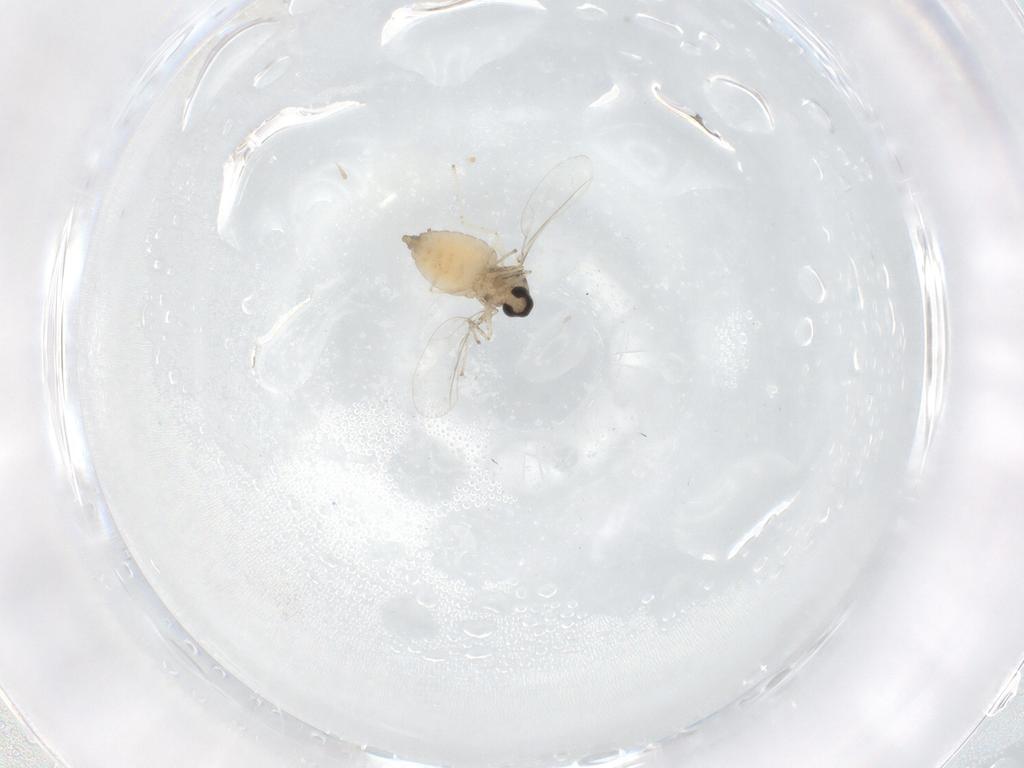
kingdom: Animalia
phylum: Arthropoda
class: Insecta
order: Diptera
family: Cecidomyiidae
